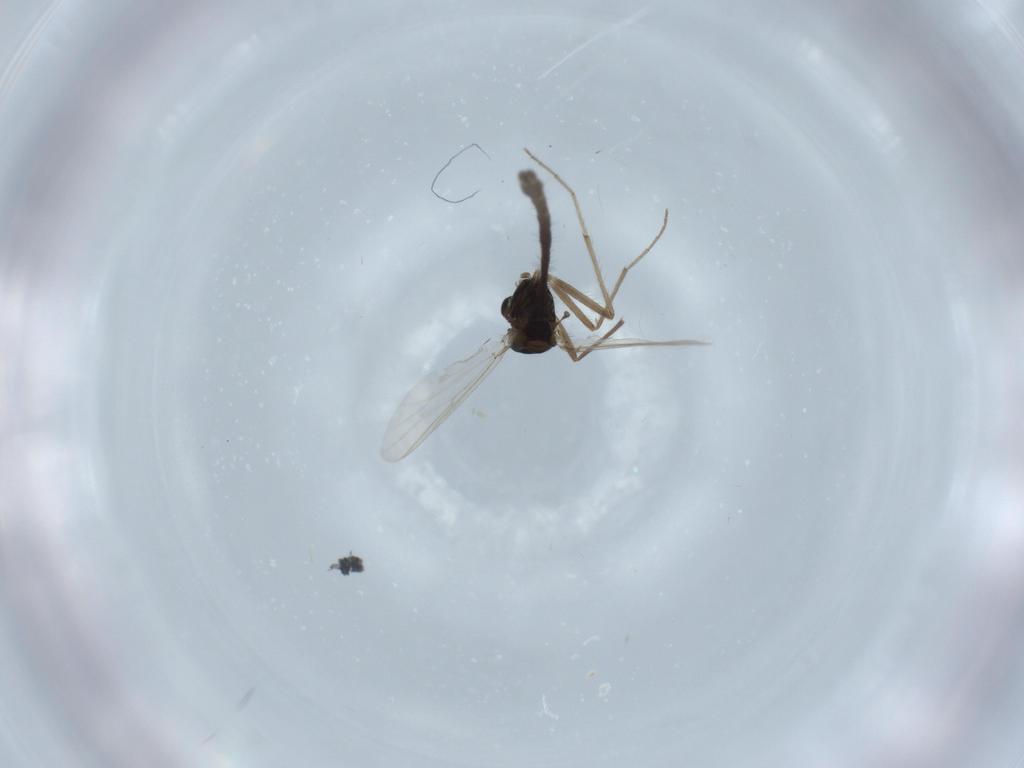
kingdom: Animalia
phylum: Arthropoda
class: Insecta
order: Diptera
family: Chironomidae
